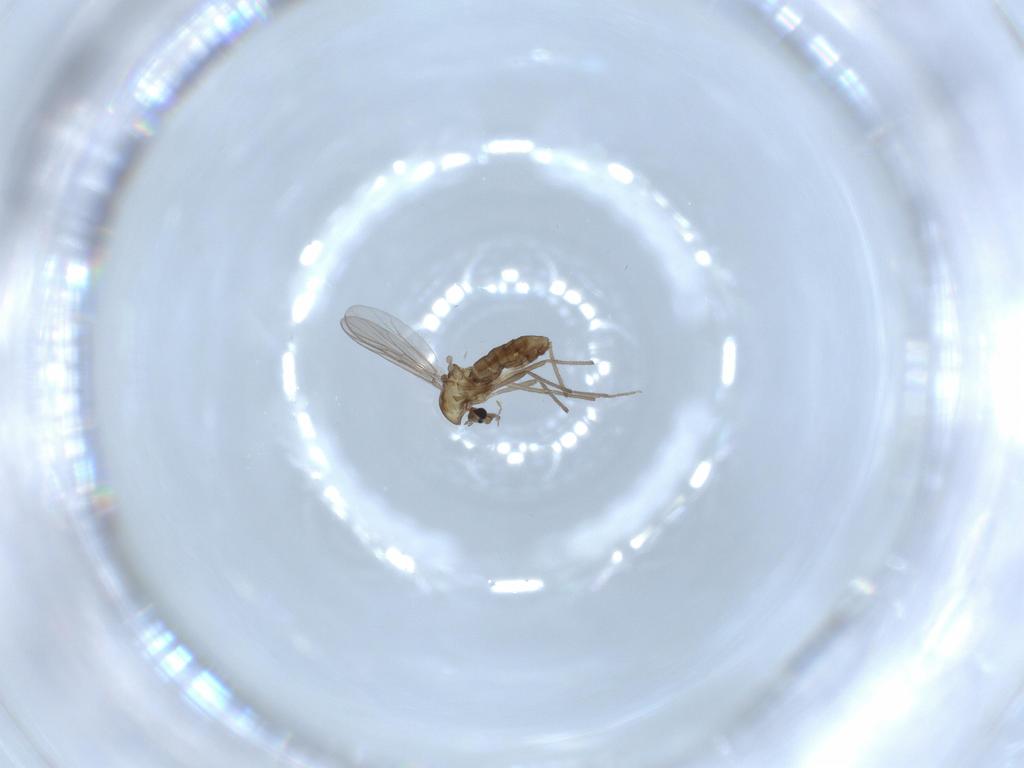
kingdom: Animalia
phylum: Arthropoda
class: Insecta
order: Diptera
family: Chironomidae
